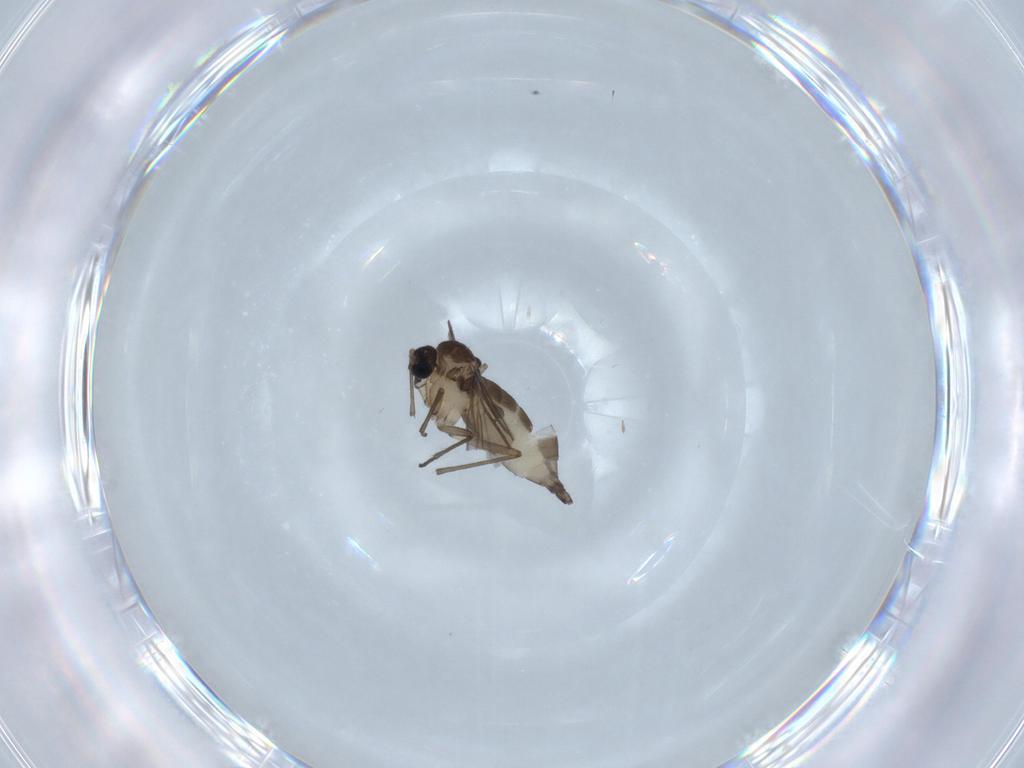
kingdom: Animalia
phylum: Arthropoda
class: Insecta
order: Diptera
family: Sciaridae
